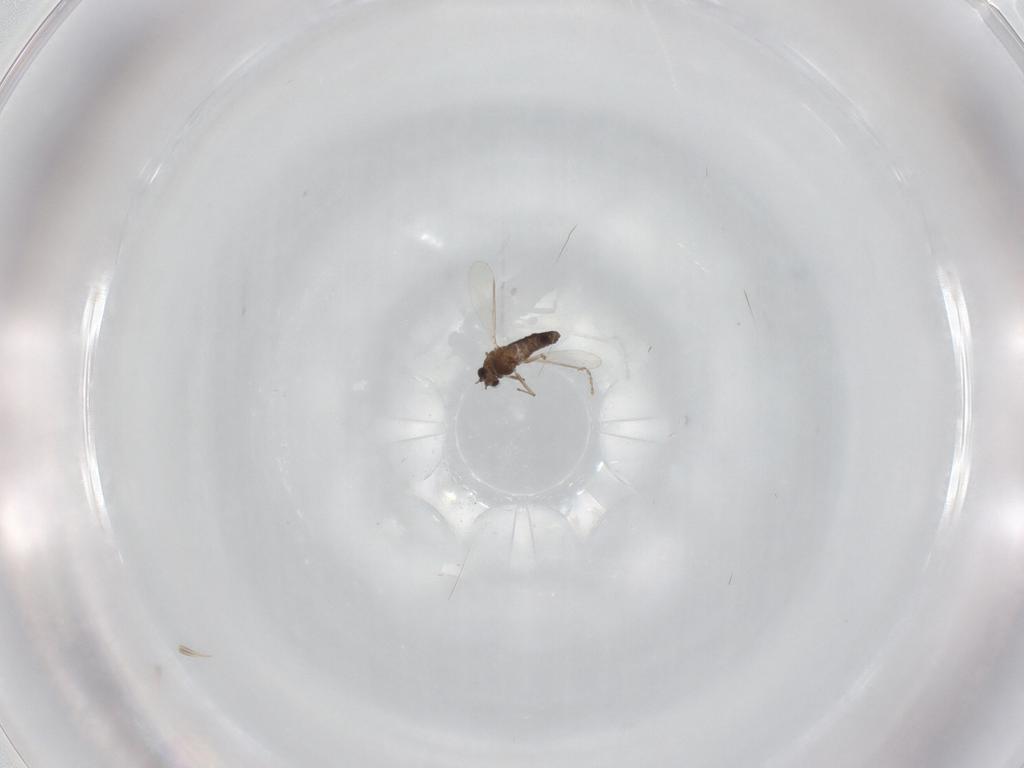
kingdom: Animalia
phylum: Arthropoda
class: Insecta
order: Diptera
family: Chironomidae
